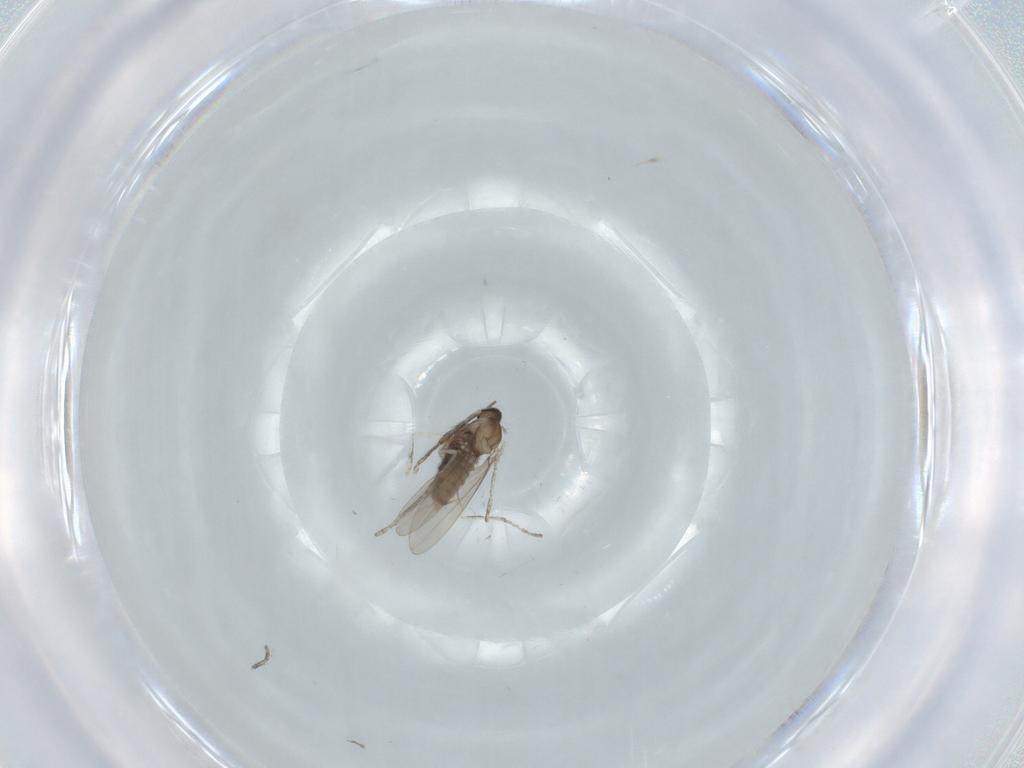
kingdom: Animalia
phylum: Arthropoda
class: Insecta
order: Diptera
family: Cecidomyiidae
